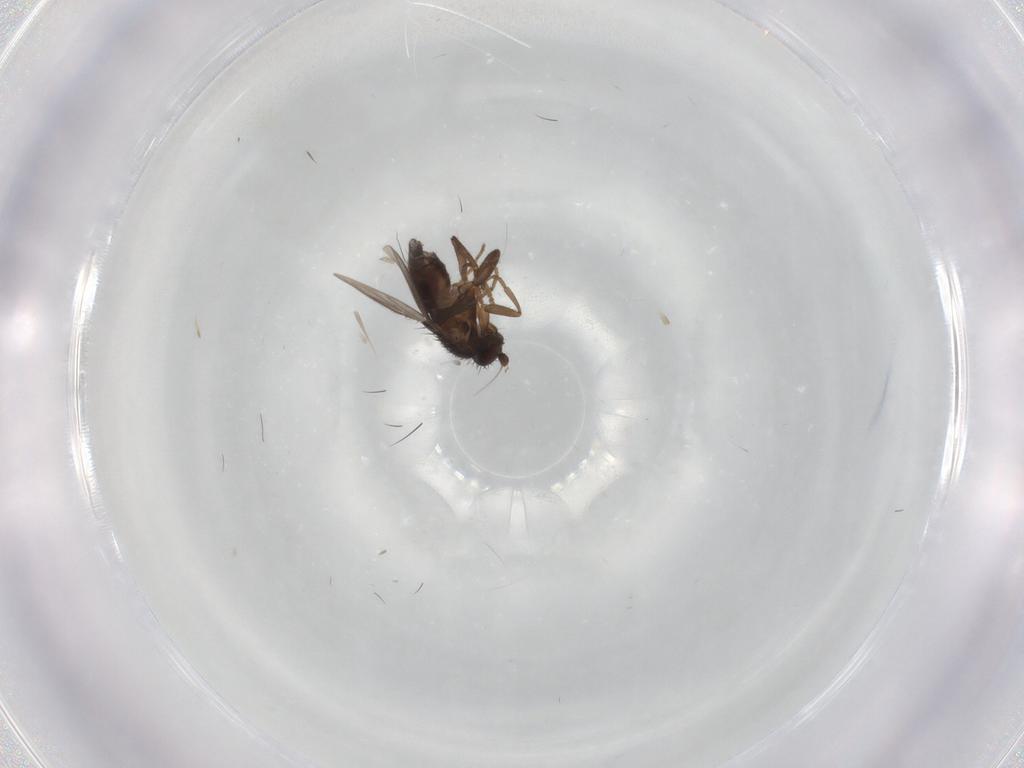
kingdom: Animalia
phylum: Arthropoda
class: Insecta
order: Diptera
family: Sphaeroceridae
